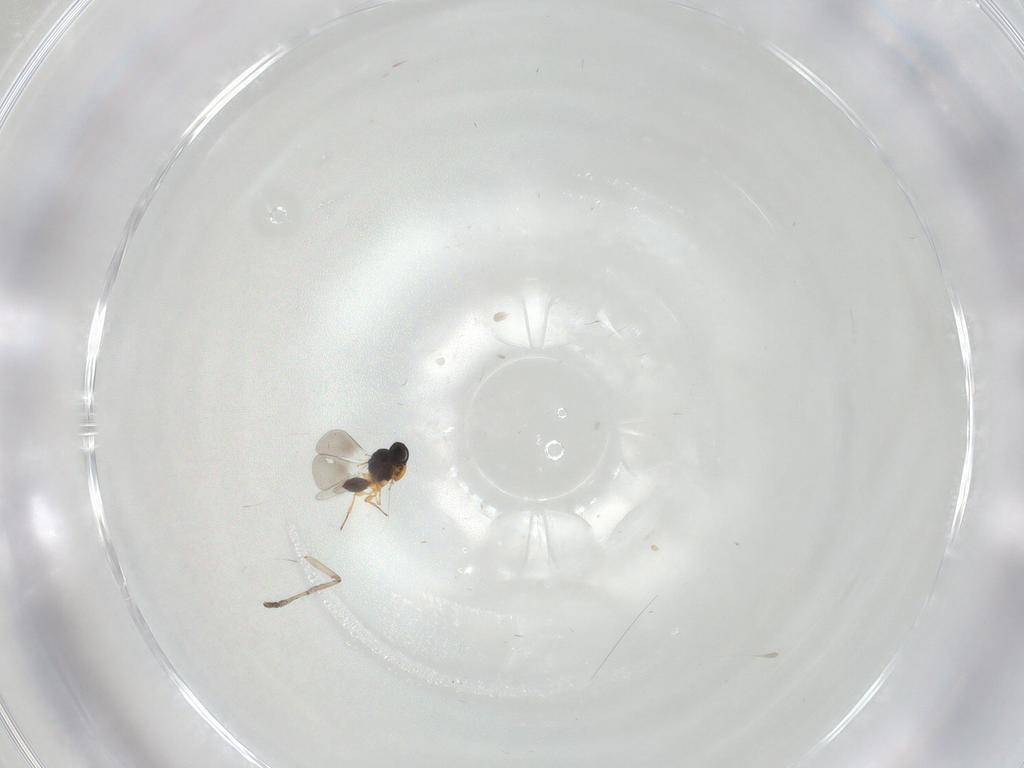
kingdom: Animalia
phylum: Arthropoda
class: Insecta
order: Hymenoptera
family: Platygastridae
